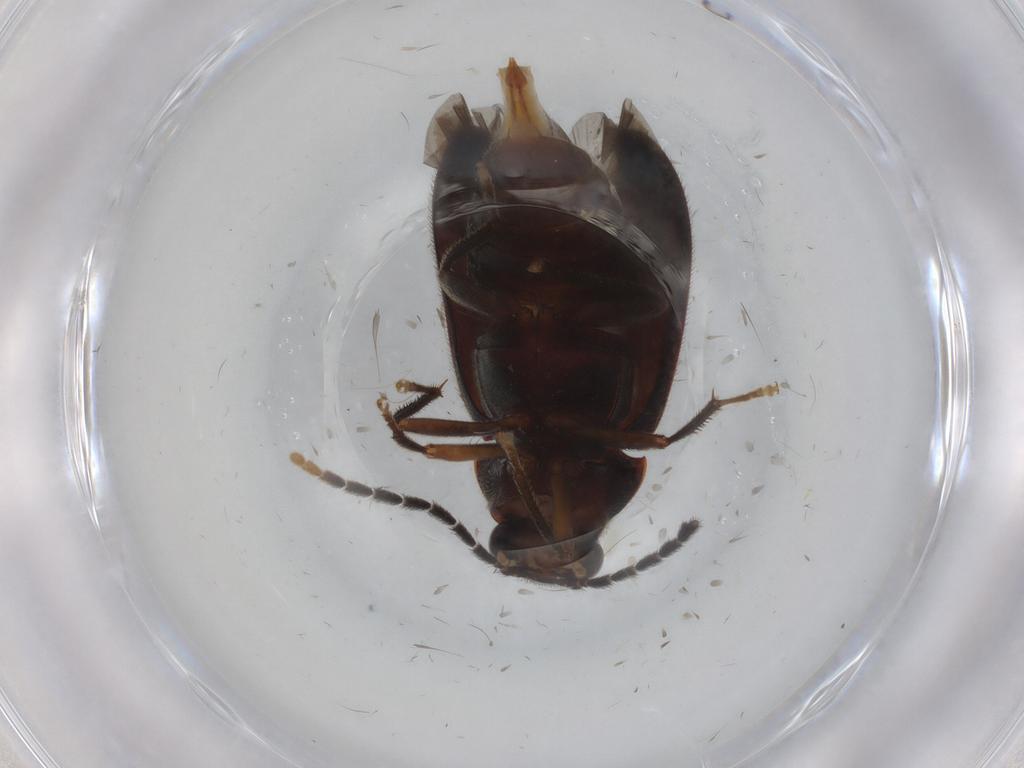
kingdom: Animalia
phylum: Arthropoda
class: Insecta
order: Coleoptera
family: Ptilodactylidae
